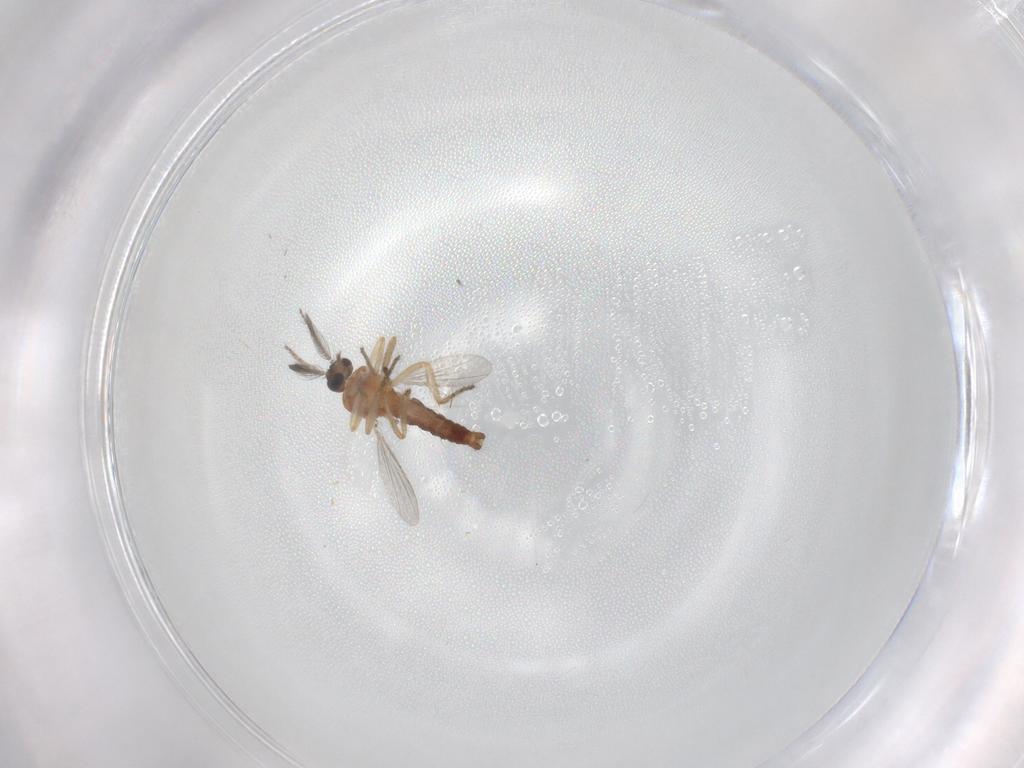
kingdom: Animalia
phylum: Arthropoda
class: Insecta
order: Diptera
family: Ceratopogonidae
